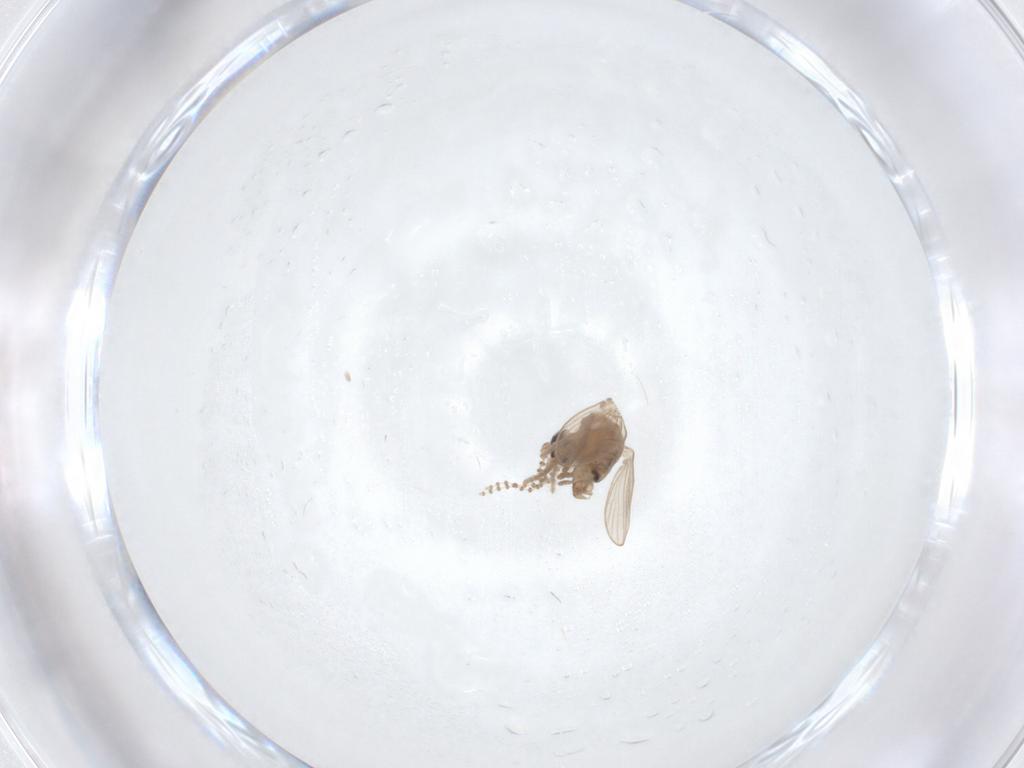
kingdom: Animalia
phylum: Arthropoda
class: Insecta
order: Diptera
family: Psychodidae
